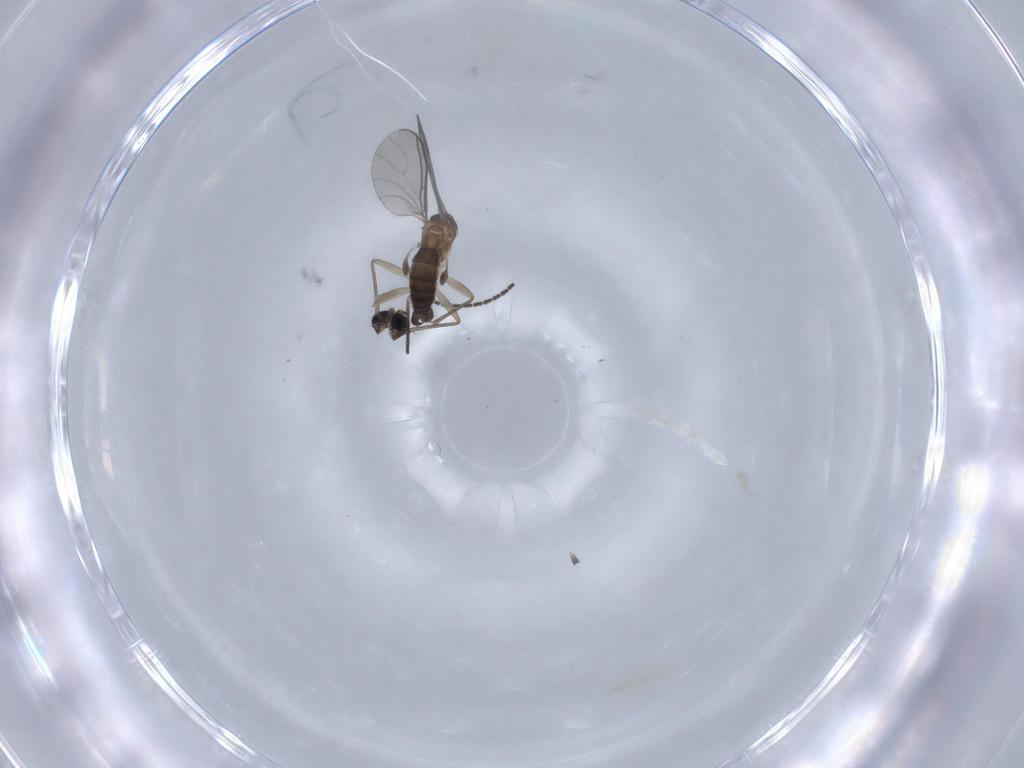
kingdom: Animalia
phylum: Arthropoda
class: Insecta
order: Diptera
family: Sciaridae
